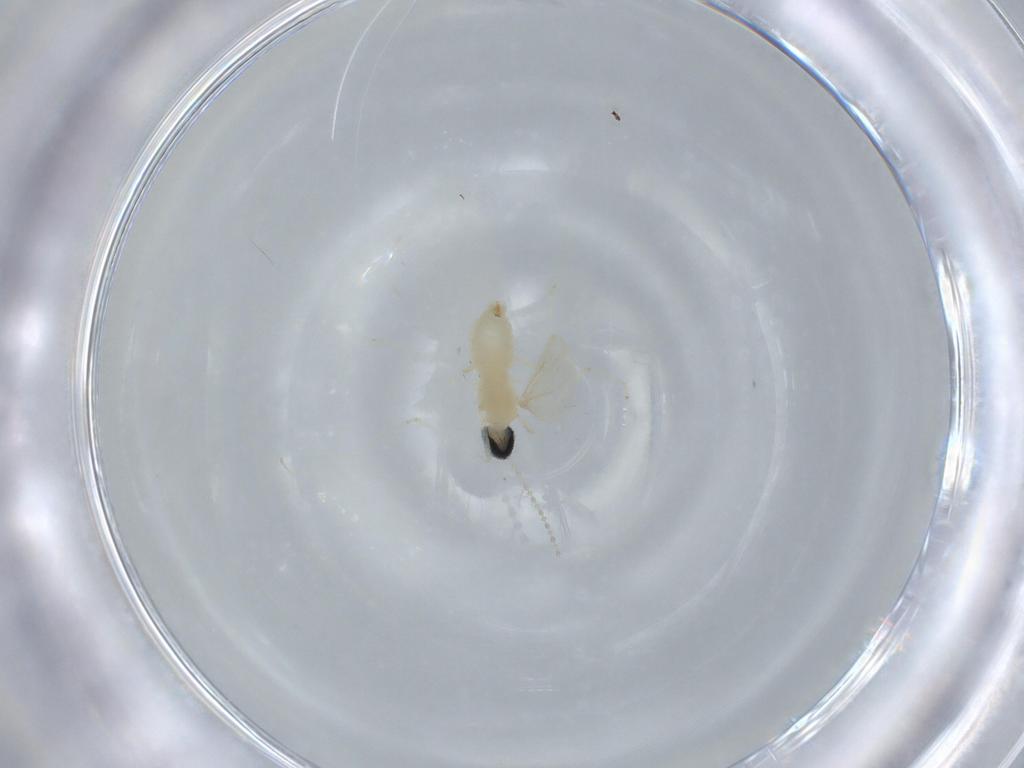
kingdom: Animalia
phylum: Arthropoda
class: Insecta
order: Diptera
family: Cecidomyiidae
